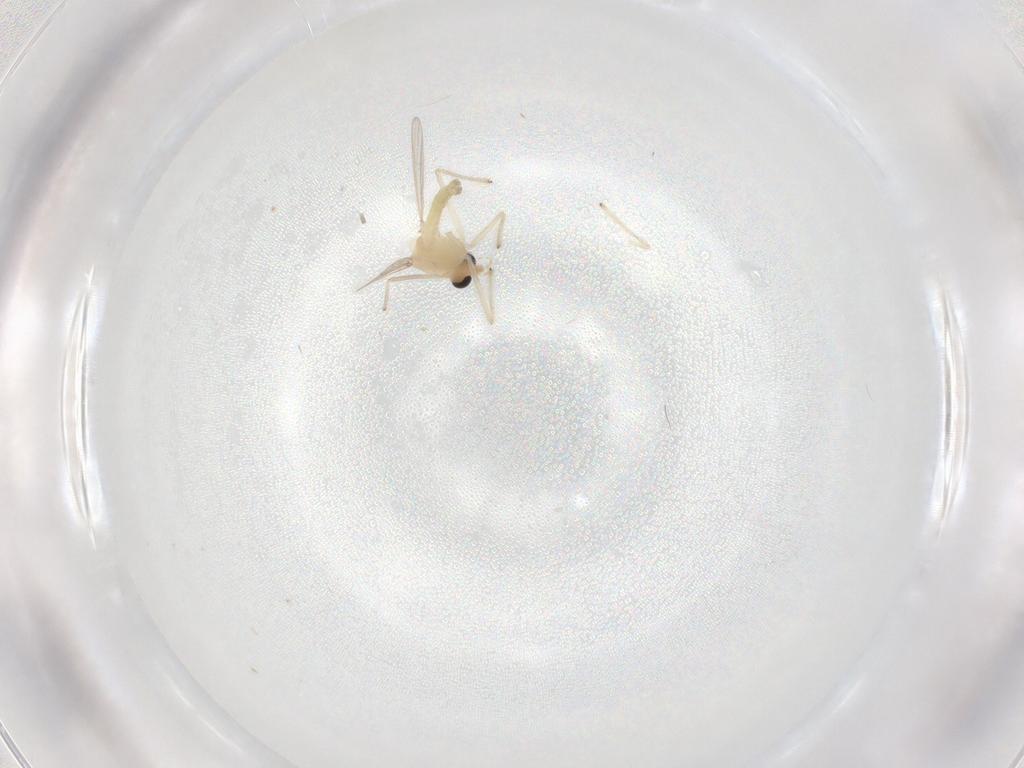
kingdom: Animalia
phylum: Arthropoda
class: Insecta
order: Diptera
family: Chironomidae
